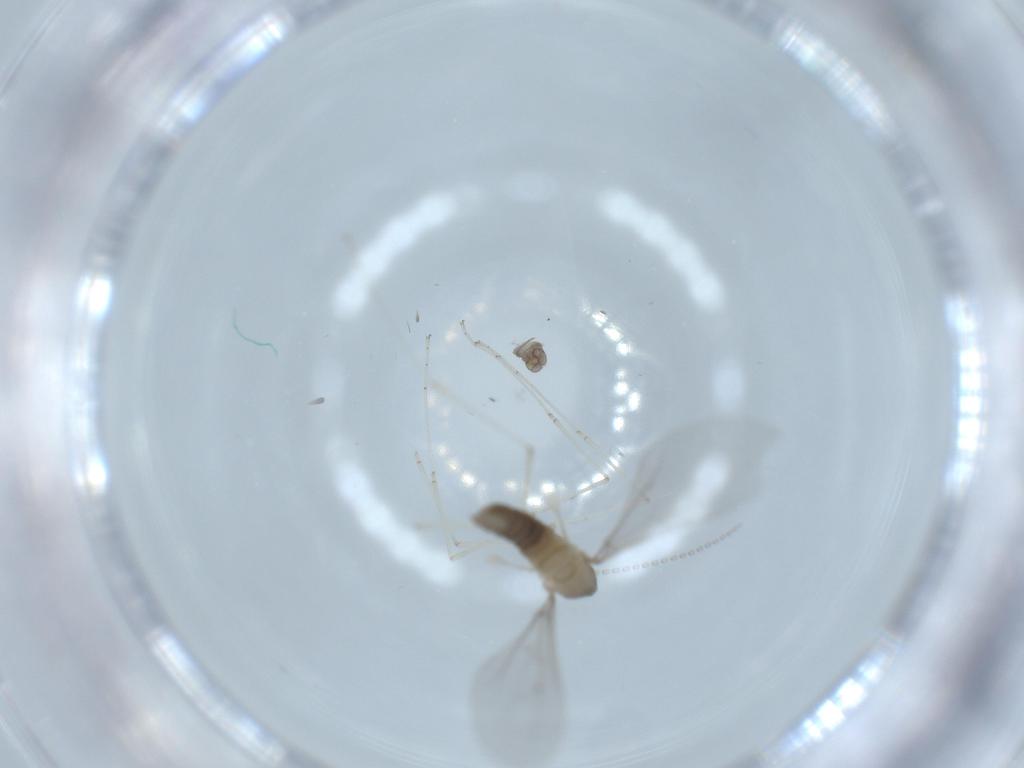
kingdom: Animalia
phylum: Arthropoda
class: Insecta
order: Diptera
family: Cecidomyiidae
